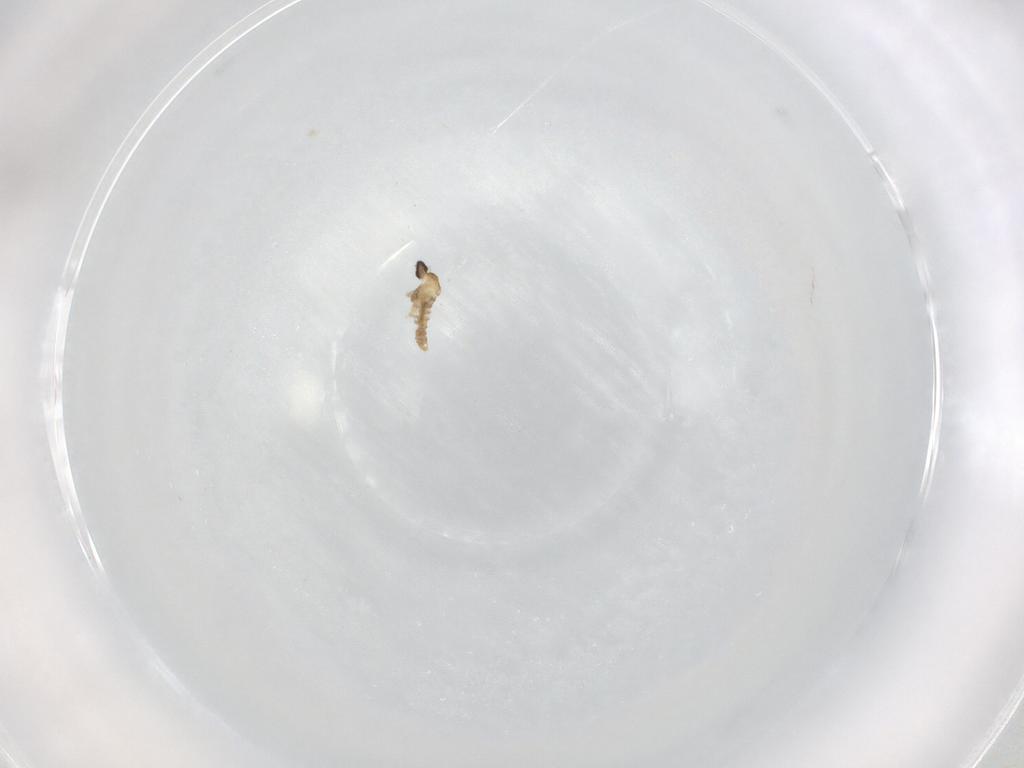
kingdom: Animalia
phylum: Arthropoda
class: Insecta
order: Diptera
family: Cecidomyiidae
